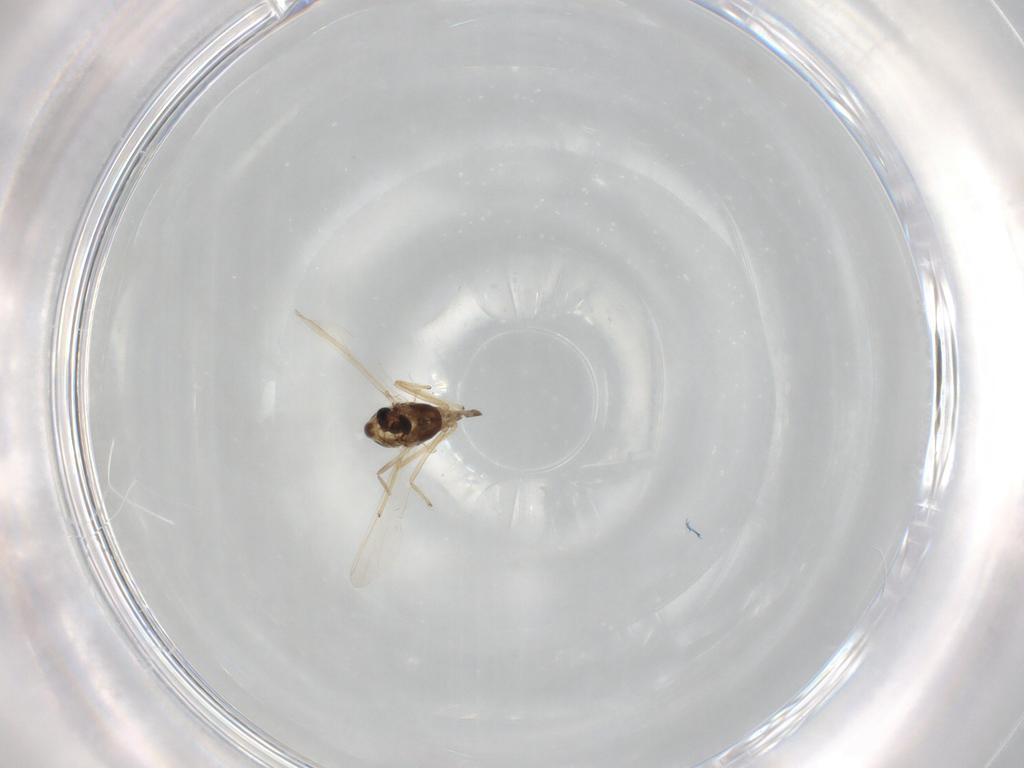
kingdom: Animalia
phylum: Arthropoda
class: Insecta
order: Diptera
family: Chironomidae
